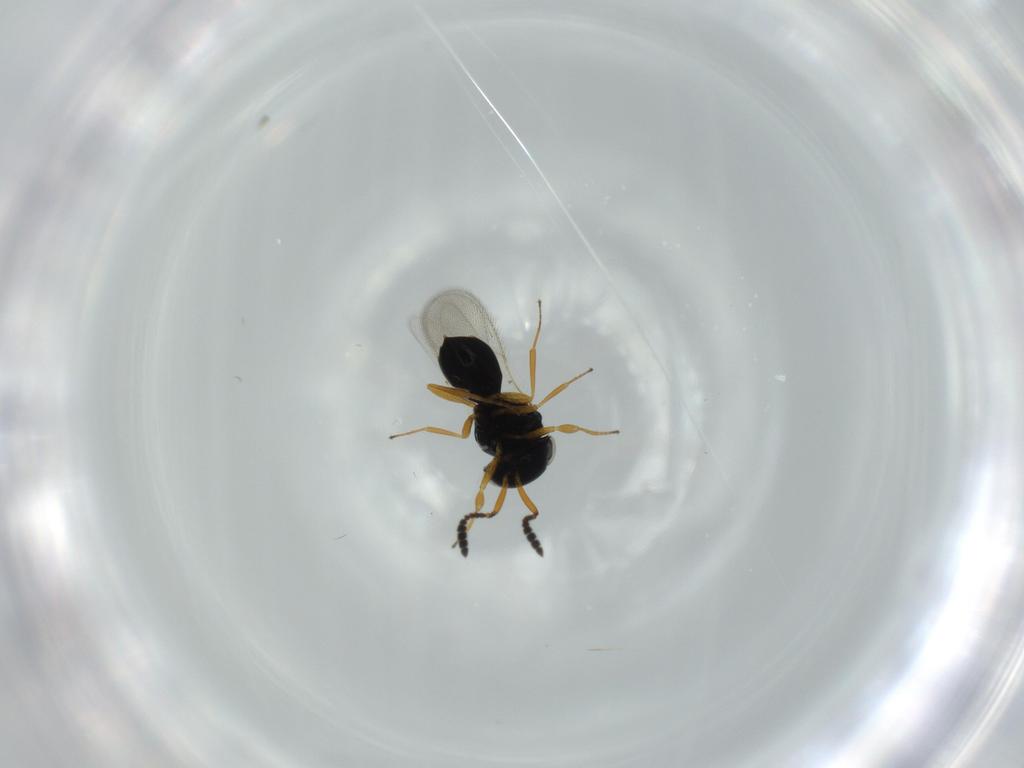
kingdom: Animalia
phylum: Arthropoda
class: Insecta
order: Hymenoptera
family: Scelionidae
